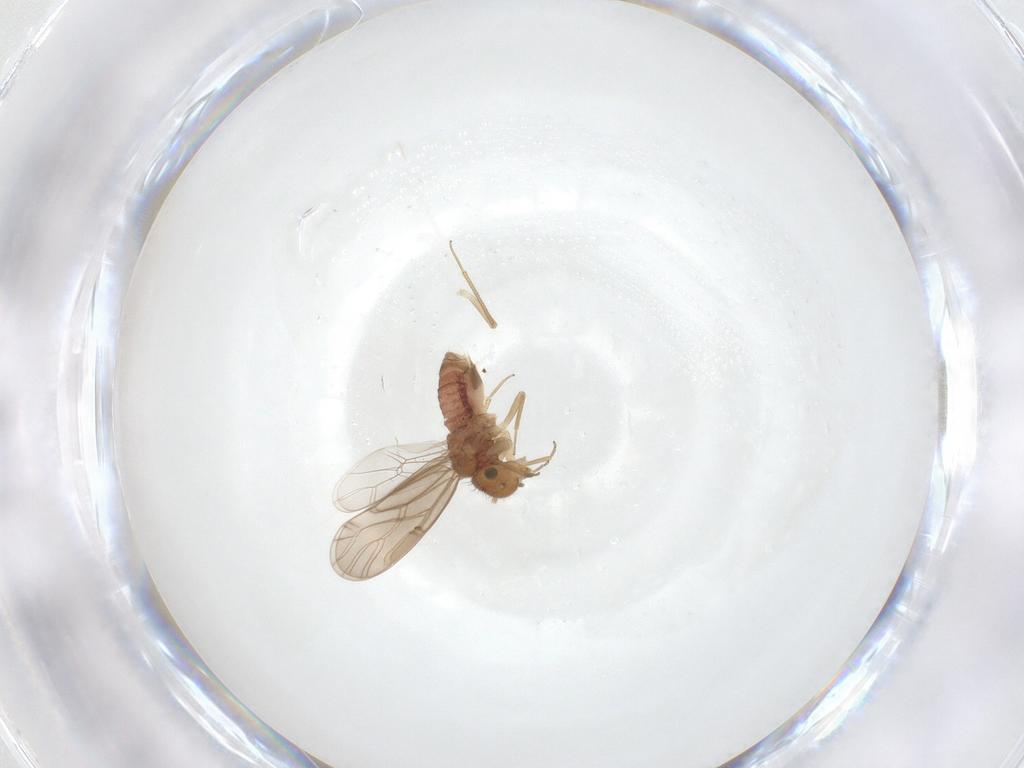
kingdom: Animalia
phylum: Arthropoda
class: Insecta
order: Psocodea
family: Ectopsocidae
